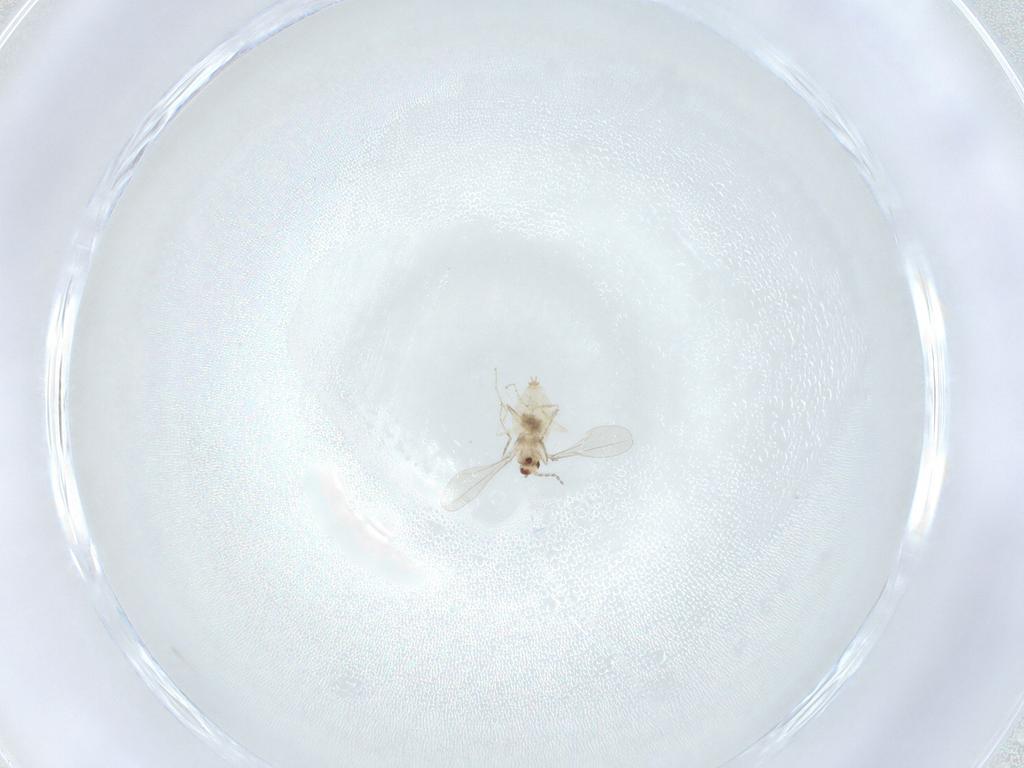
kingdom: Animalia
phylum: Arthropoda
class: Insecta
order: Diptera
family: Cecidomyiidae
